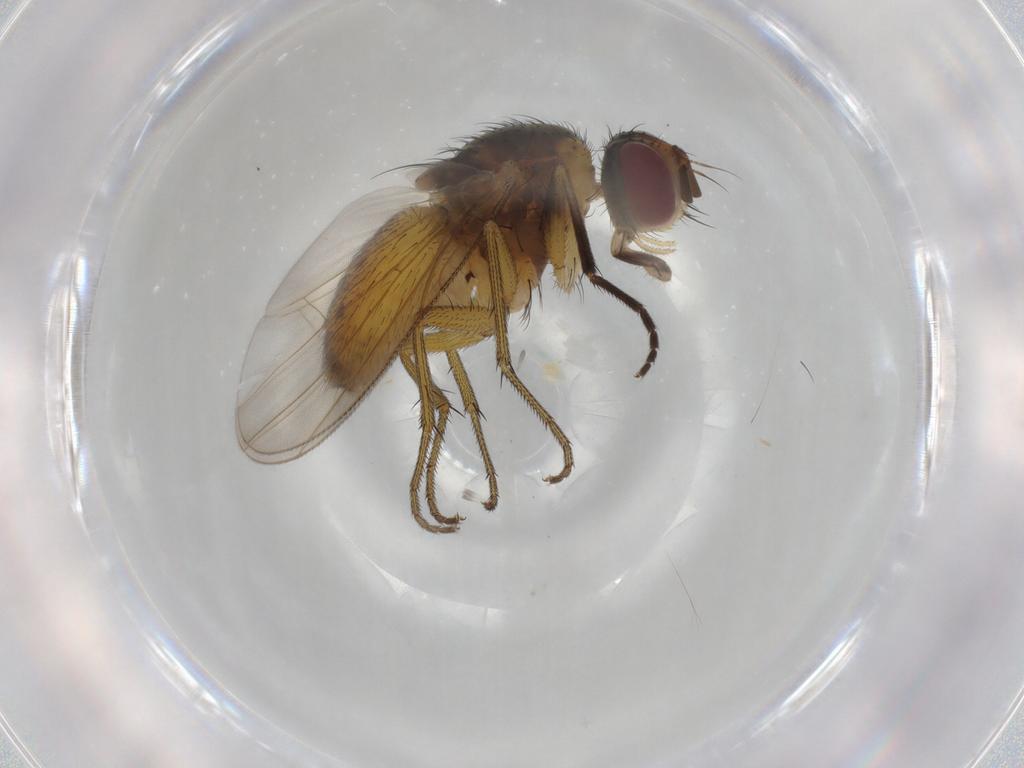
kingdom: Animalia
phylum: Arthropoda
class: Insecta
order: Diptera
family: Muscidae
